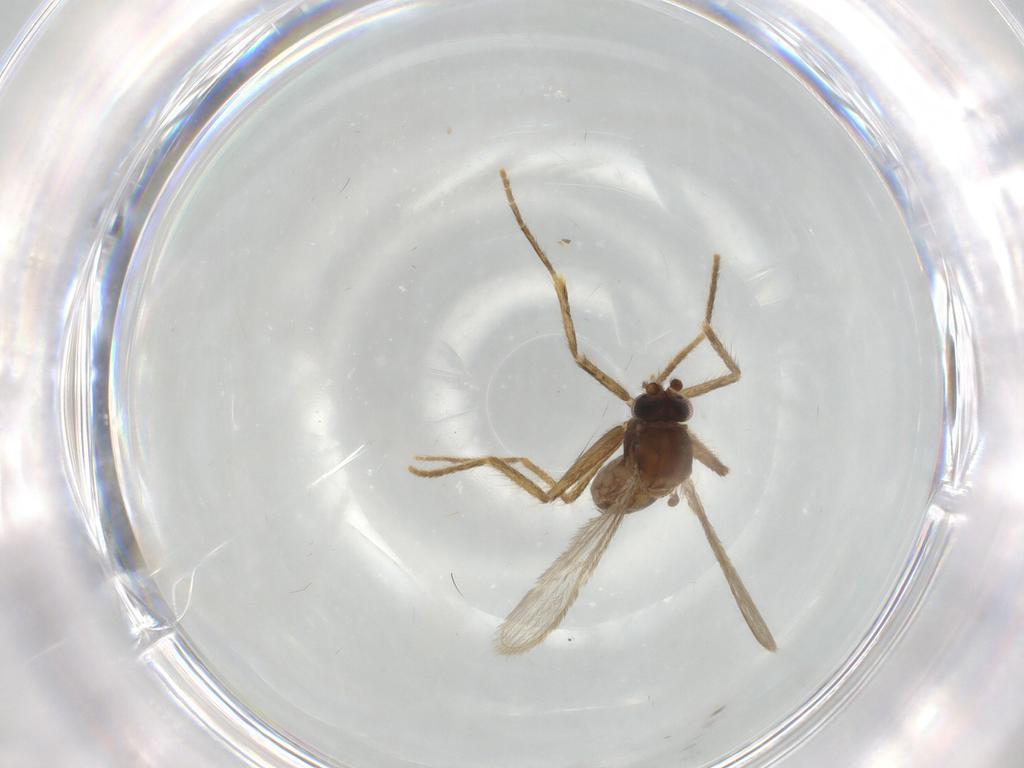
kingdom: Animalia
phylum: Arthropoda
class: Insecta
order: Diptera
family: Corethrellidae
